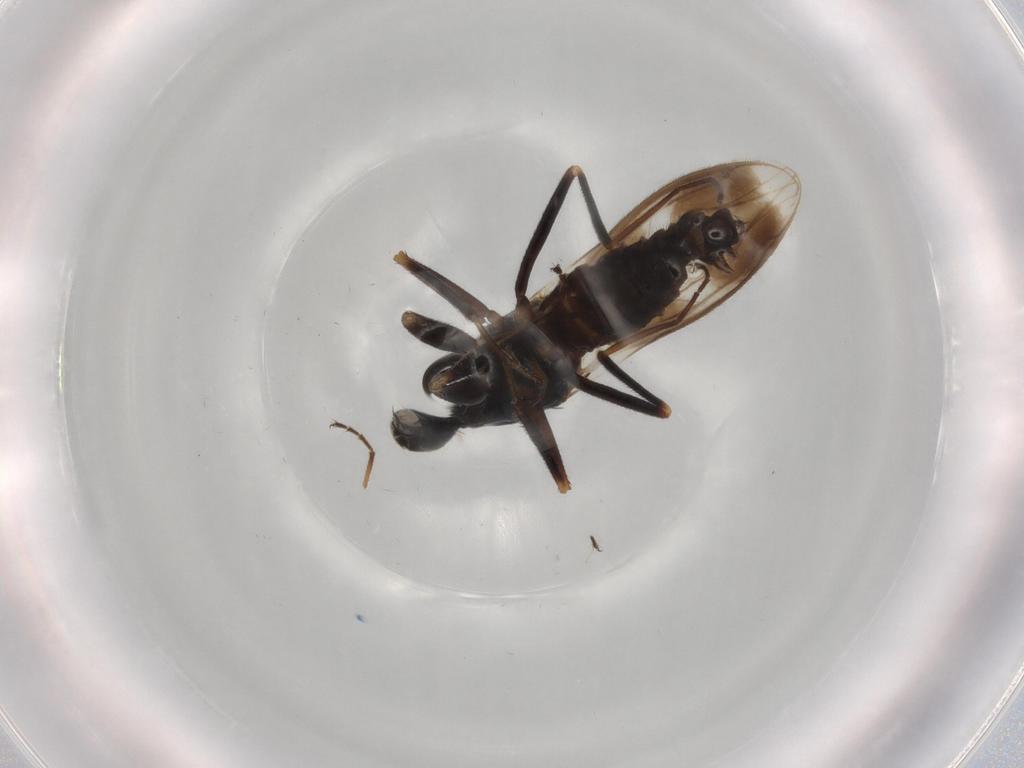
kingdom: Animalia
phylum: Arthropoda
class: Insecta
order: Diptera
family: Hybotidae
